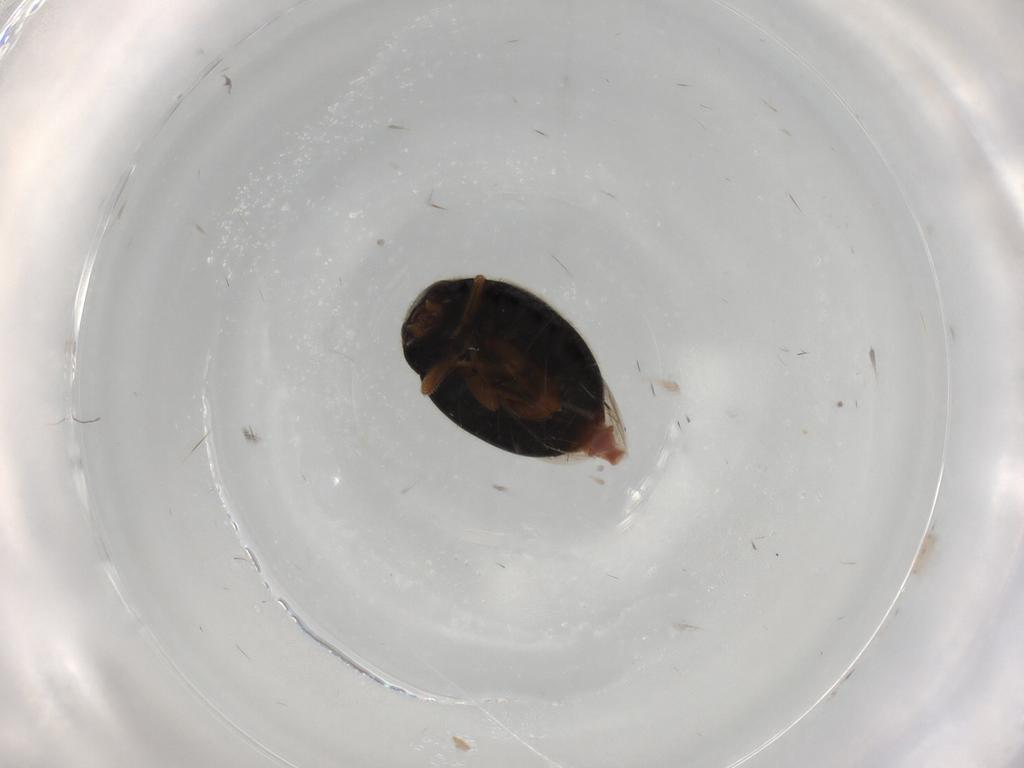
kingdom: Animalia
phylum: Arthropoda
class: Insecta
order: Coleoptera
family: Coccinellidae
